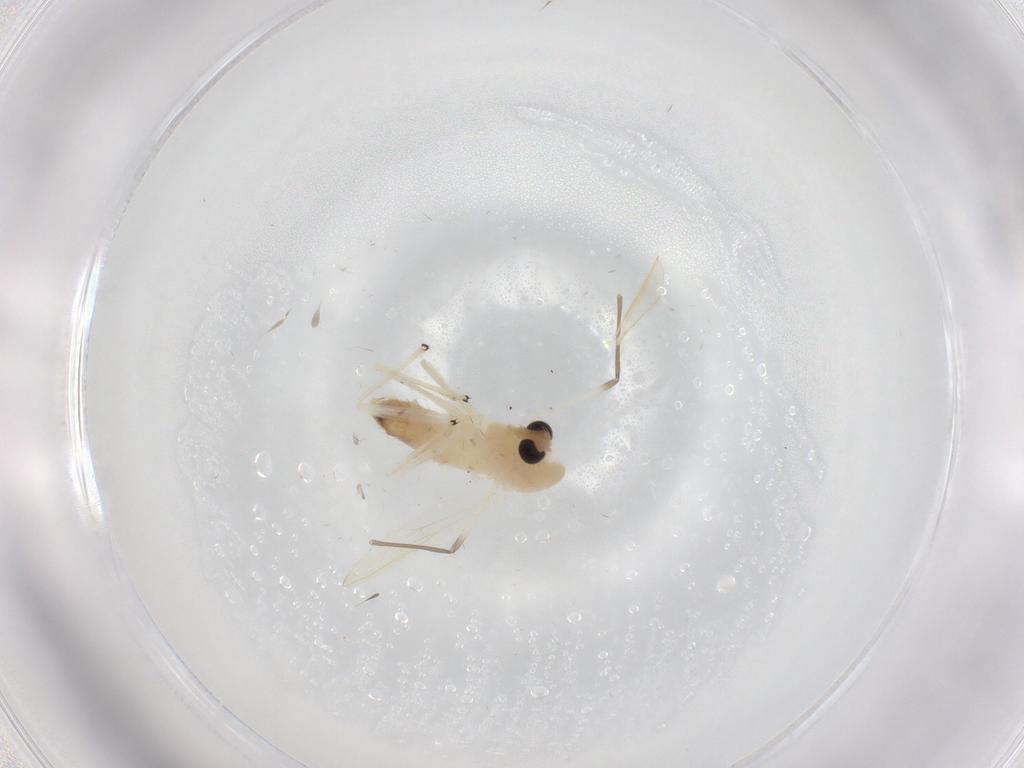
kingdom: Animalia
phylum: Arthropoda
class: Insecta
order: Diptera
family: Chironomidae
